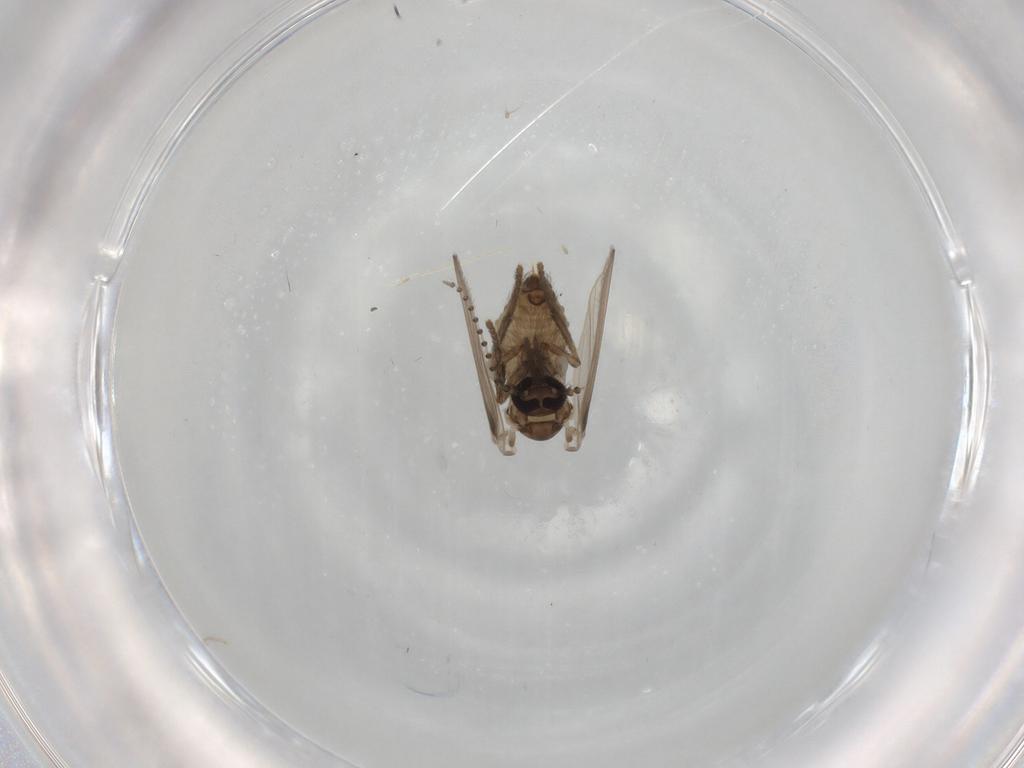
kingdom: Animalia
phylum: Arthropoda
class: Insecta
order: Diptera
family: Psychodidae
